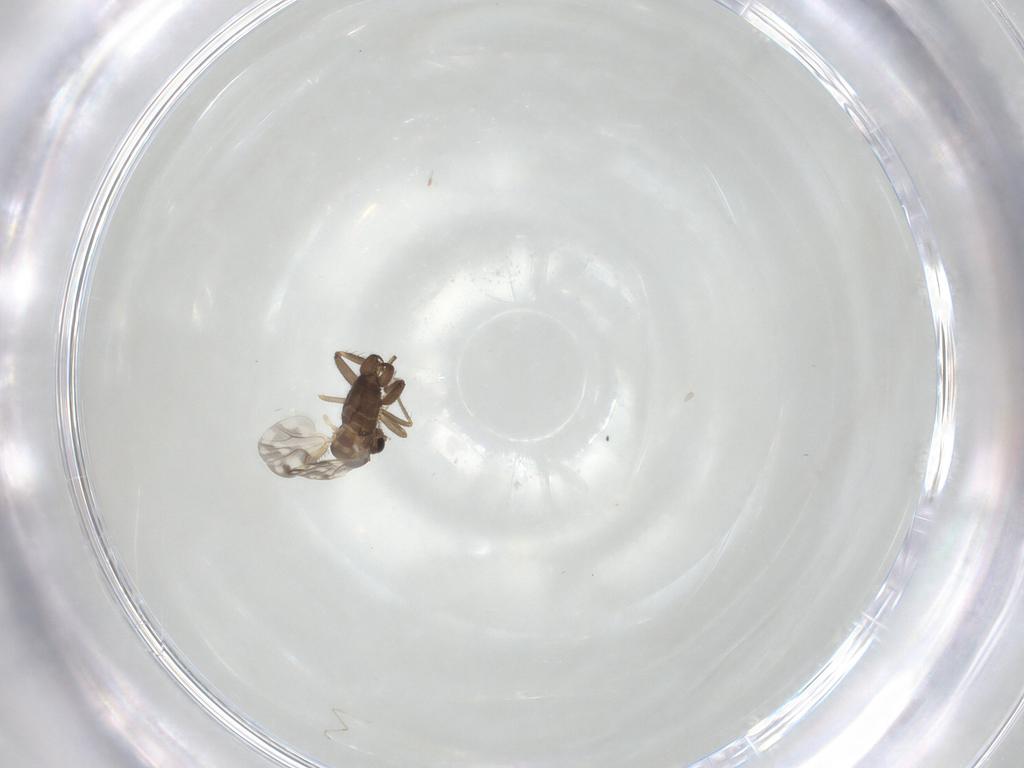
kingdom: Animalia
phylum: Arthropoda
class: Insecta
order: Diptera
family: Ceratopogonidae
